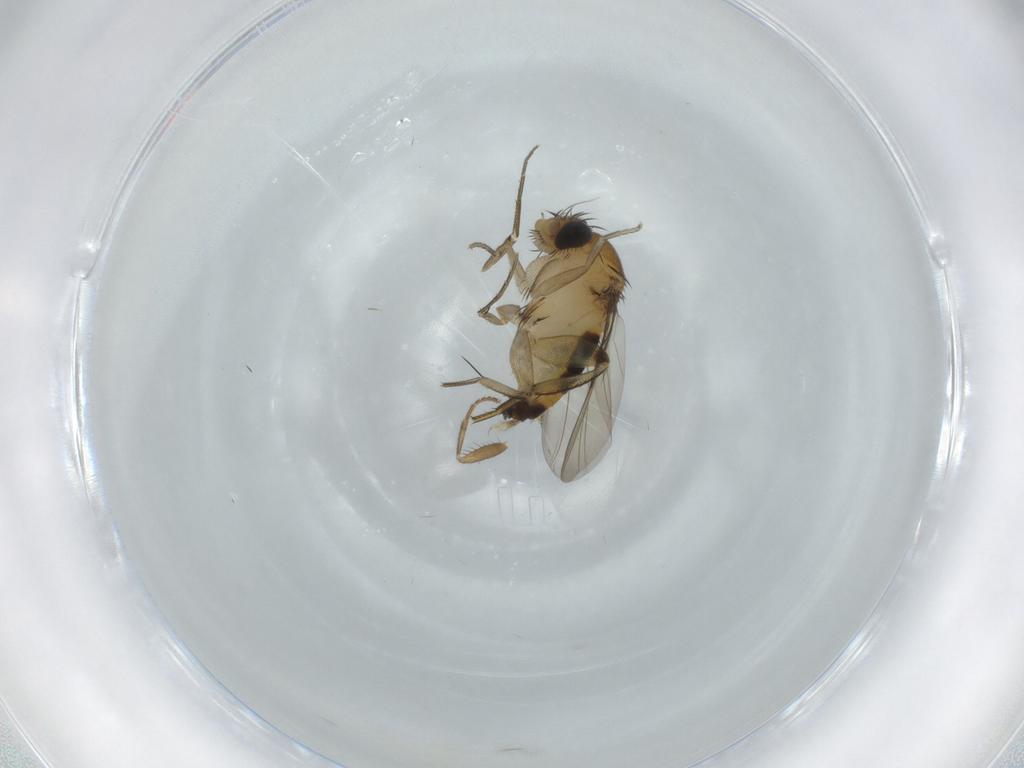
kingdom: Animalia
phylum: Arthropoda
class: Insecta
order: Diptera
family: Phoridae
